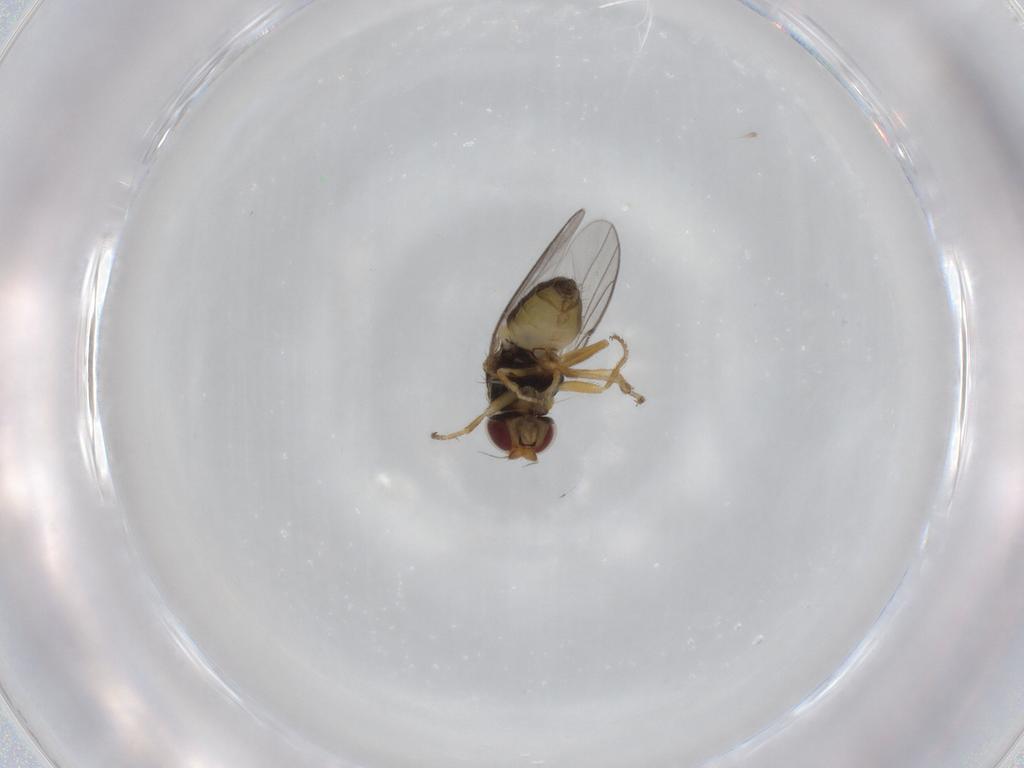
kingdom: Animalia
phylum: Arthropoda
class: Insecta
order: Diptera
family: Chloropidae
